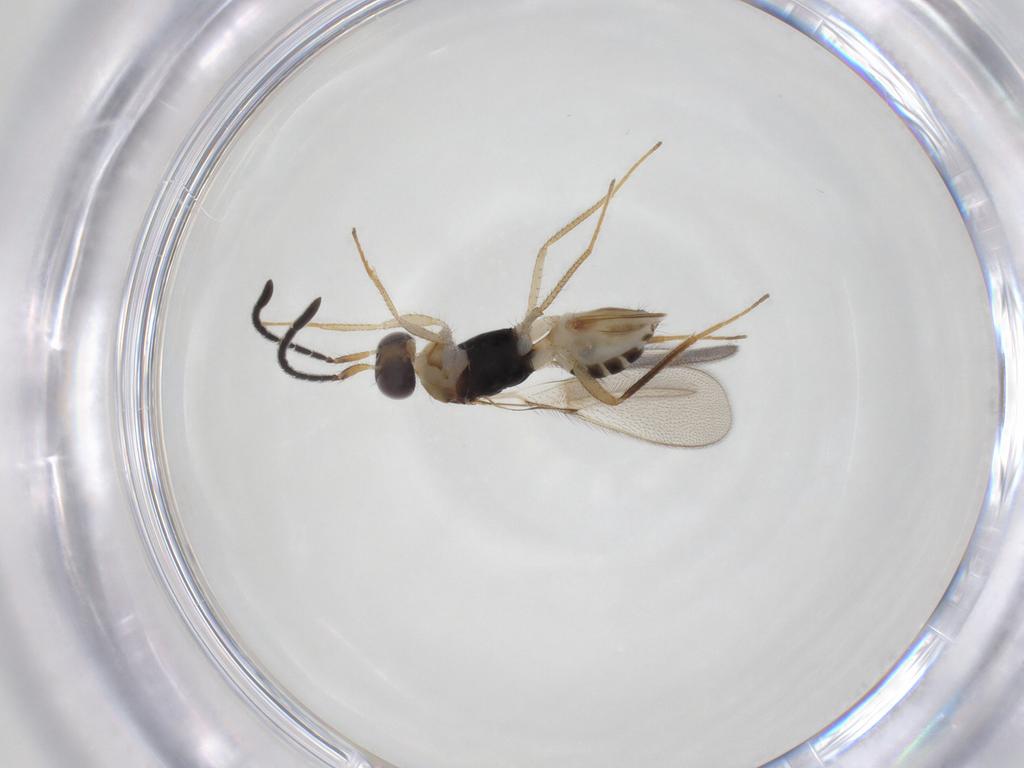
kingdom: Animalia
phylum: Arthropoda
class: Insecta
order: Hymenoptera
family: Mymaridae
